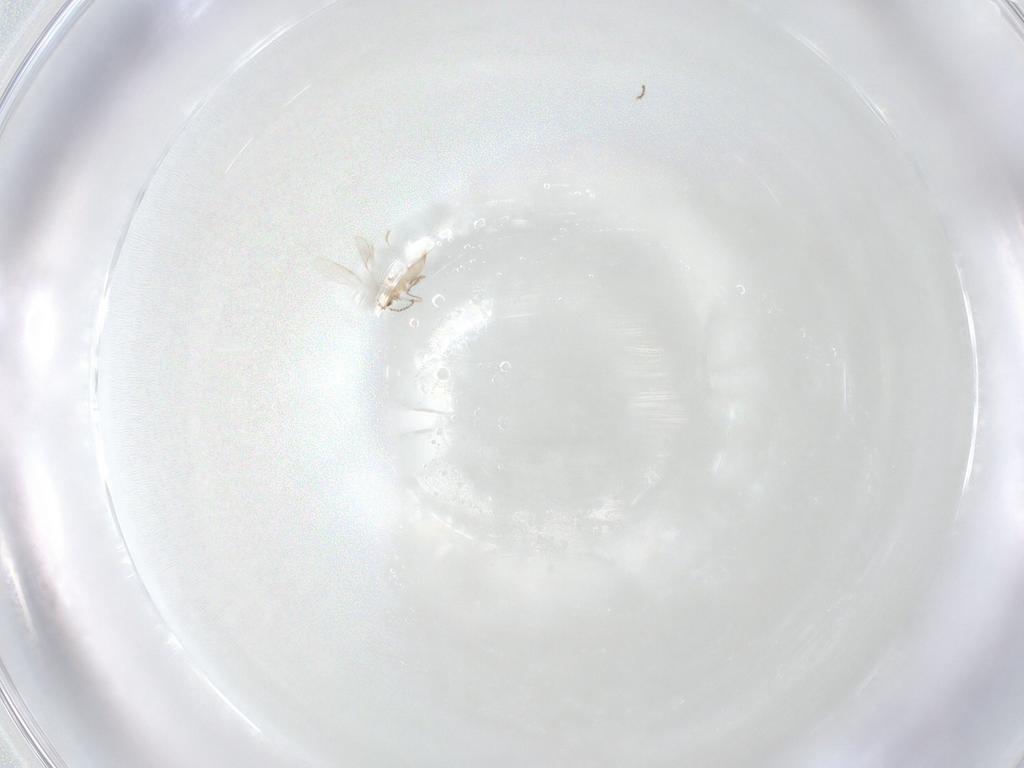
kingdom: Animalia
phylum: Arthropoda
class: Insecta
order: Diptera
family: Cecidomyiidae
